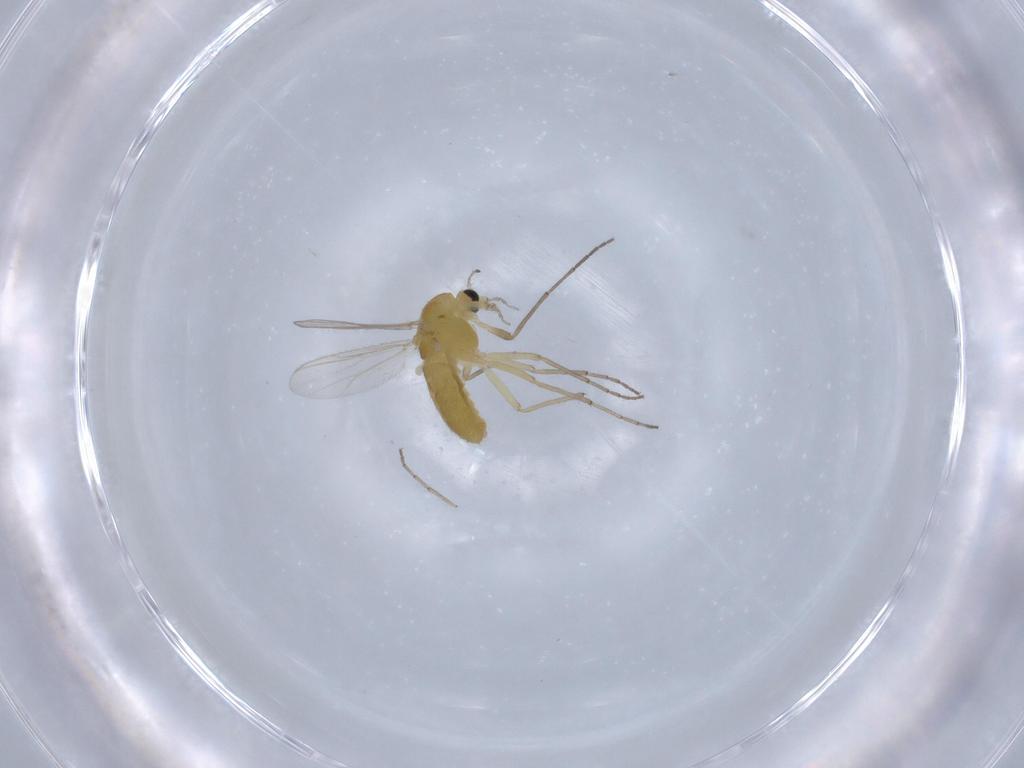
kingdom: Animalia
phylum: Arthropoda
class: Insecta
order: Diptera
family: Chironomidae
